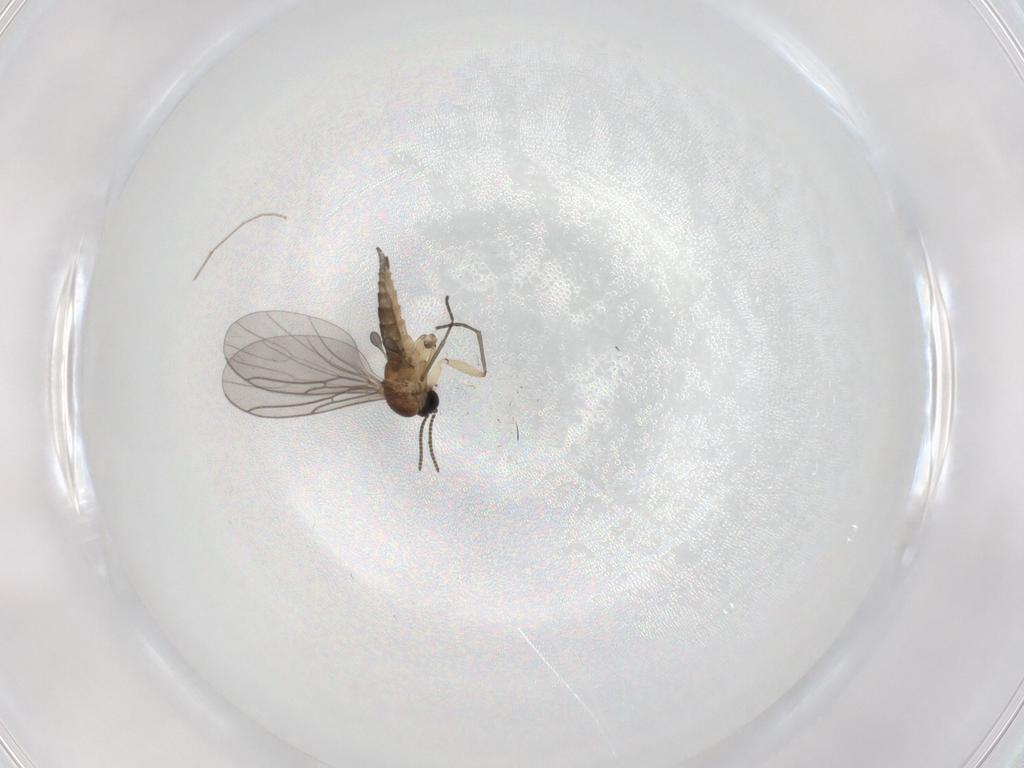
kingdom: Animalia
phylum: Arthropoda
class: Insecta
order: Diptera
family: Sciaridae
